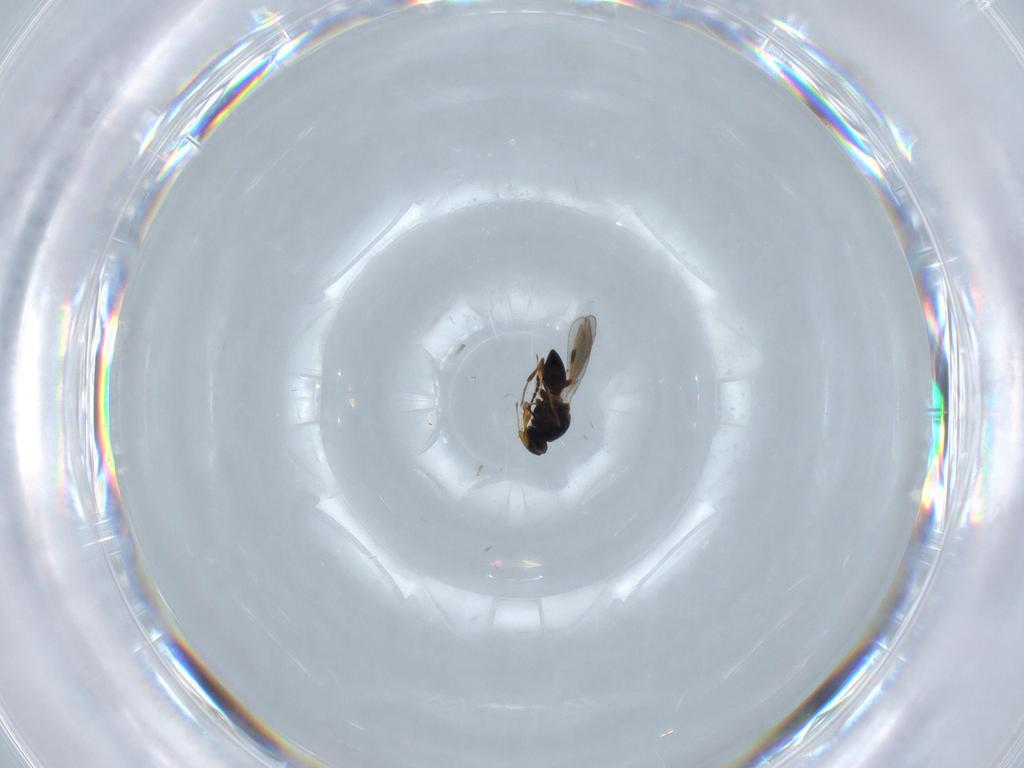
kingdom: Animalia
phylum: Arthropoda
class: Insecta
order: Hymenoptera
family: Platygastridae
